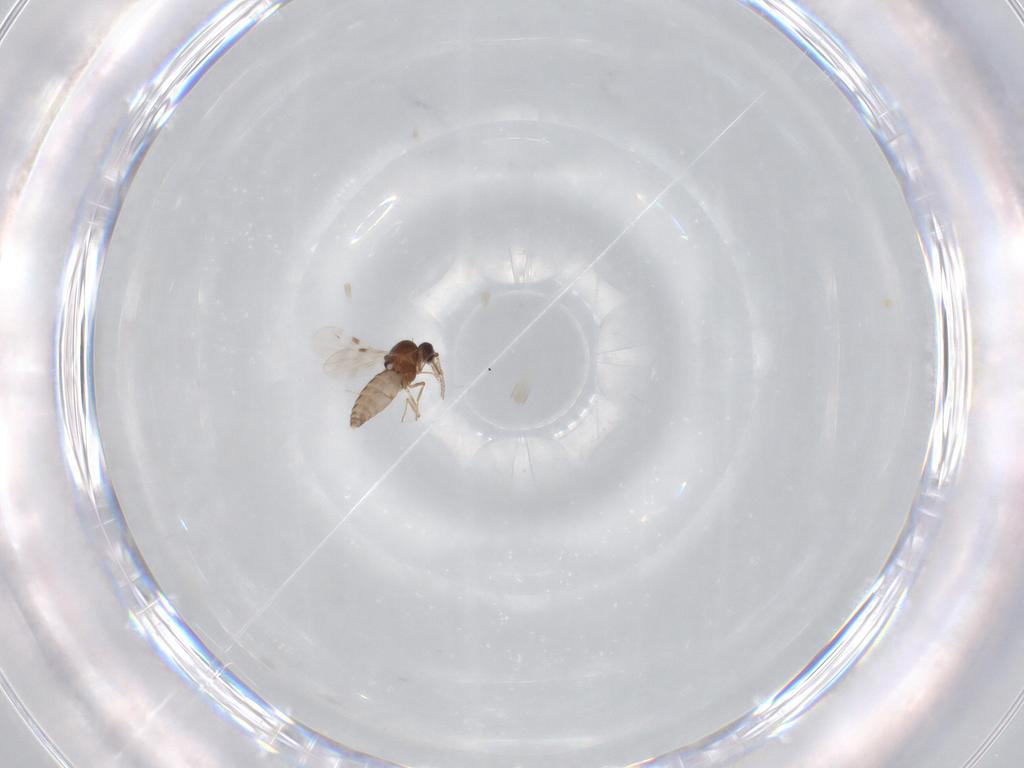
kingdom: Animalia
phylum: Arthropoda
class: Insecta
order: Diptera
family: Tabanidae
